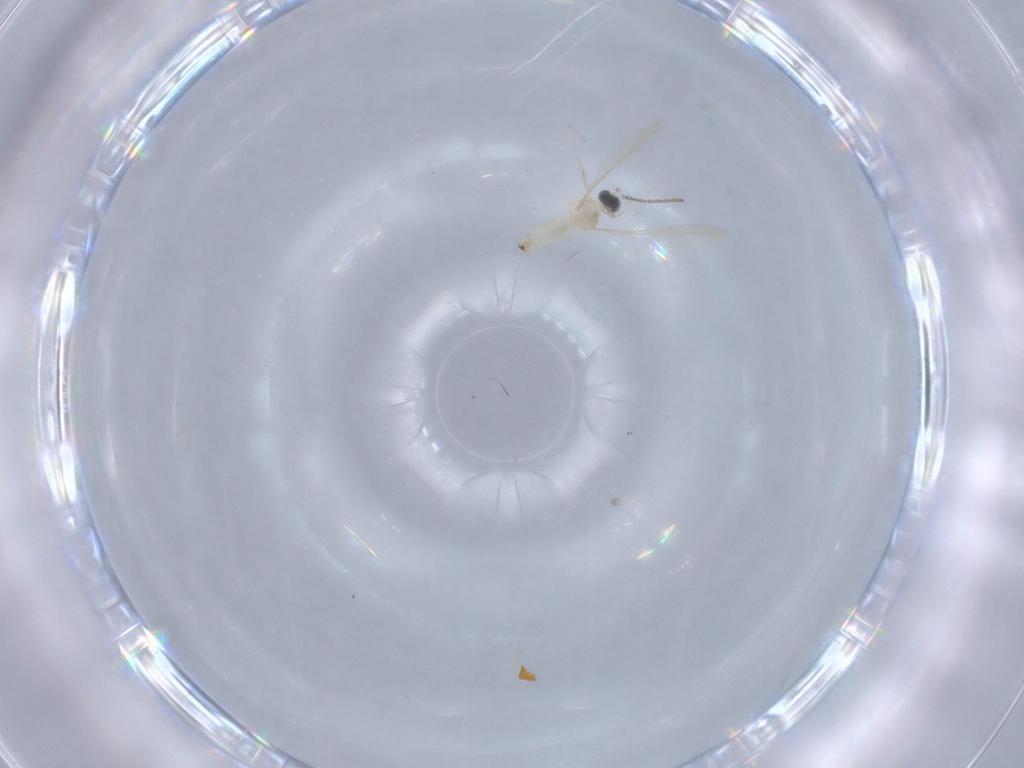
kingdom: Animalia
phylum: Arthropoda
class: Insecta
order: Diptera
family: Cecidomyiidae
